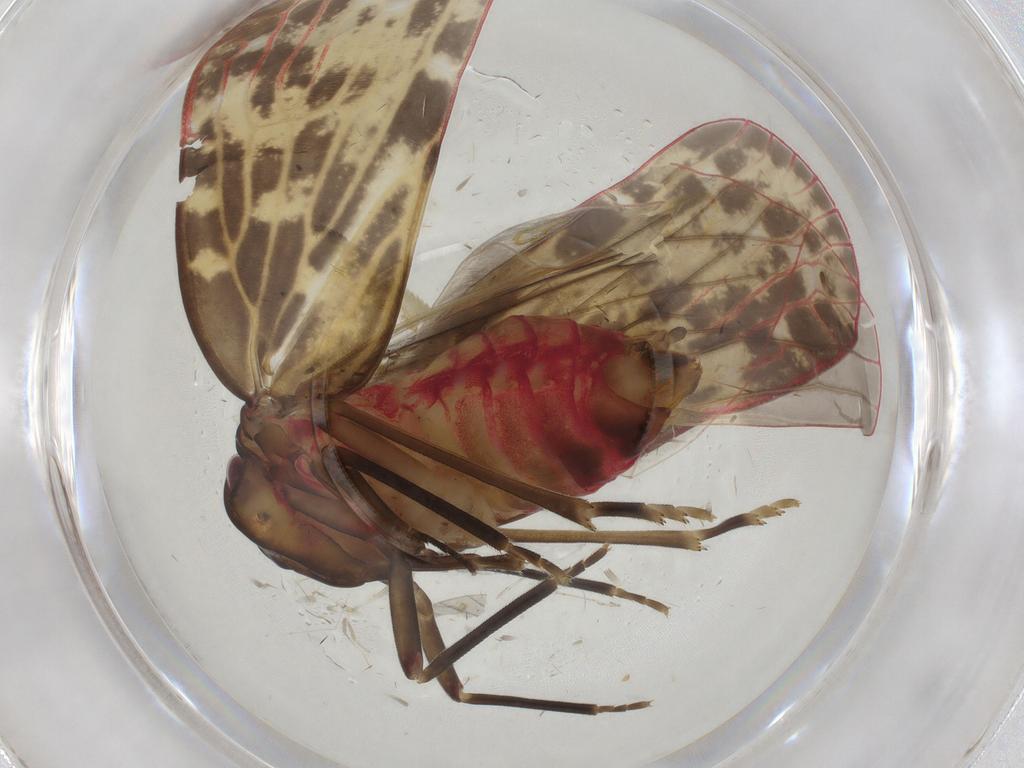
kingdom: Animalia
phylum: Arthropoda
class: Insecta
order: Hemiptera
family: Achilidae
